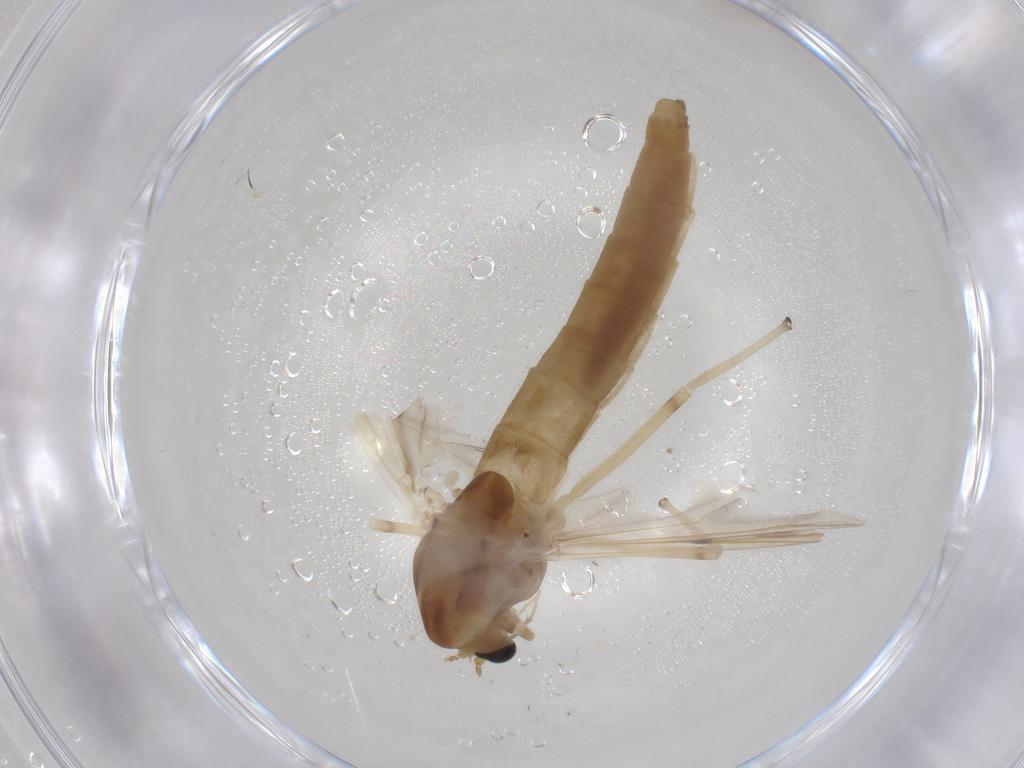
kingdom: Animalia
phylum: Arthropoda
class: Insecta
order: Diptera
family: Chironomidae
